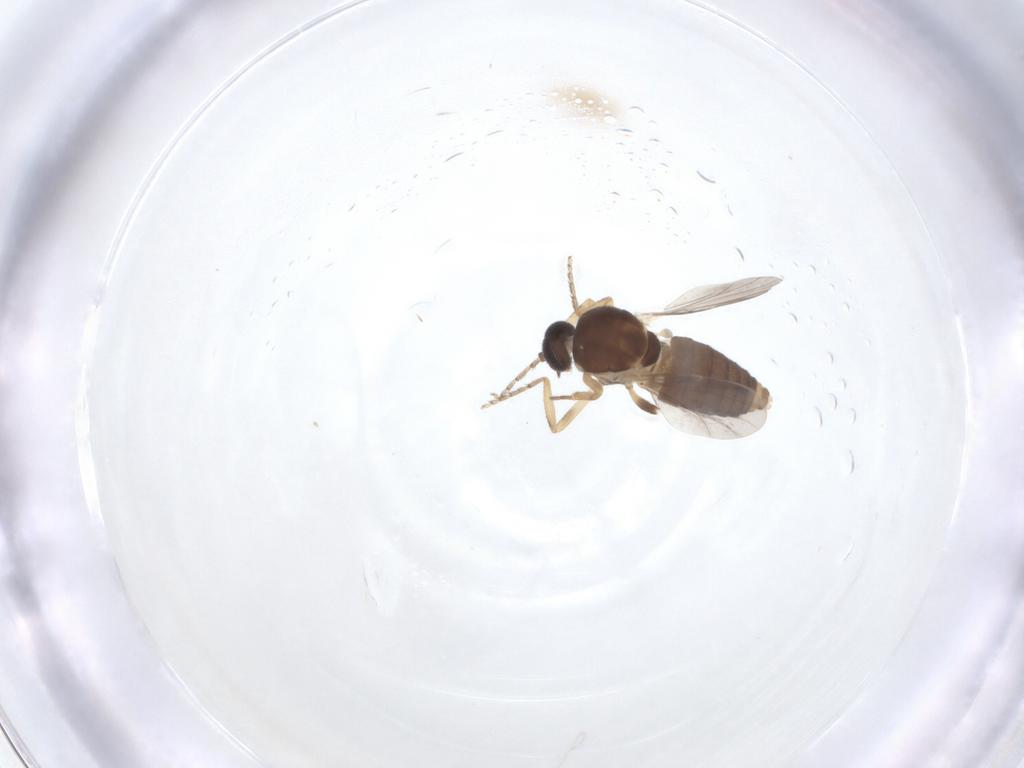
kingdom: Animalia
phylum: Arthropoda
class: Insecta
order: Diptera
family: Ceratopogonidae
